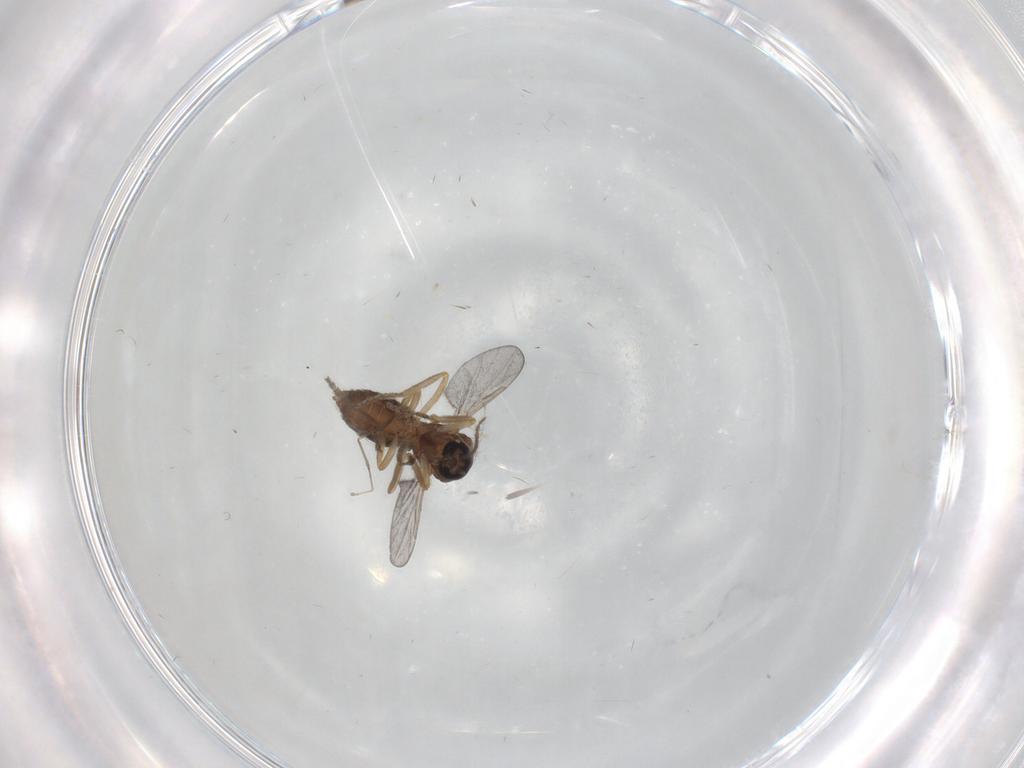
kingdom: Animalia
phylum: Arthropoda
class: Insecta
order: Diptera
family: Ceratopogonidae
